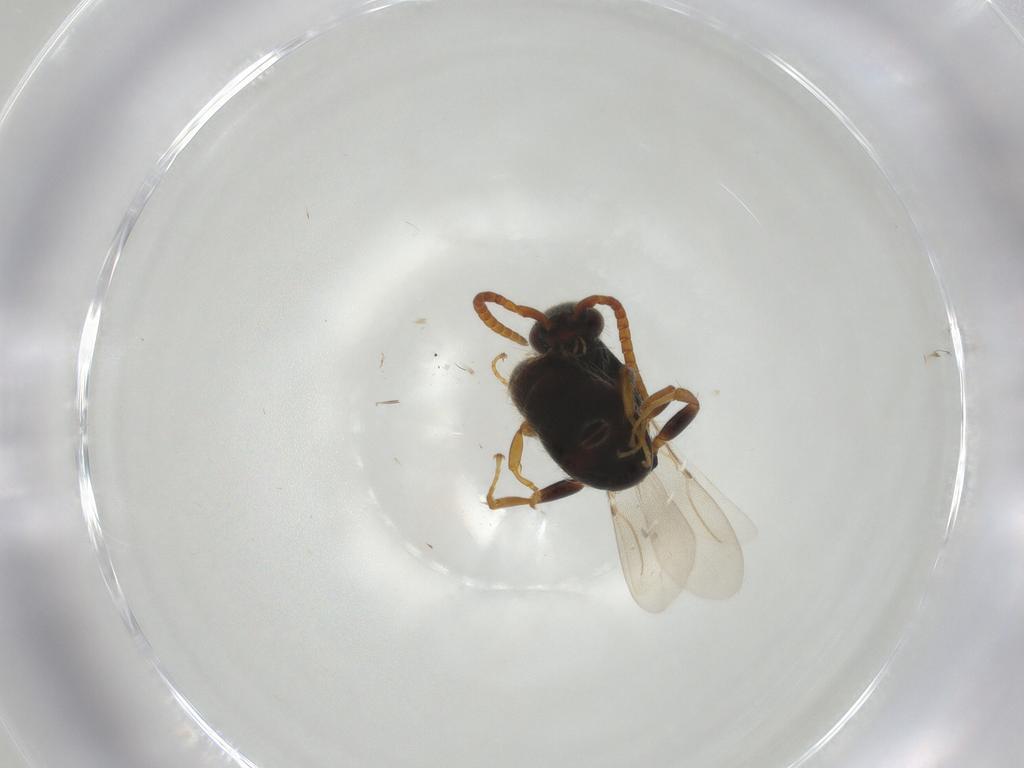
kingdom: Animalia
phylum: Arthropoda
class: Insecta
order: Hymenoptera
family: Bethylidae
